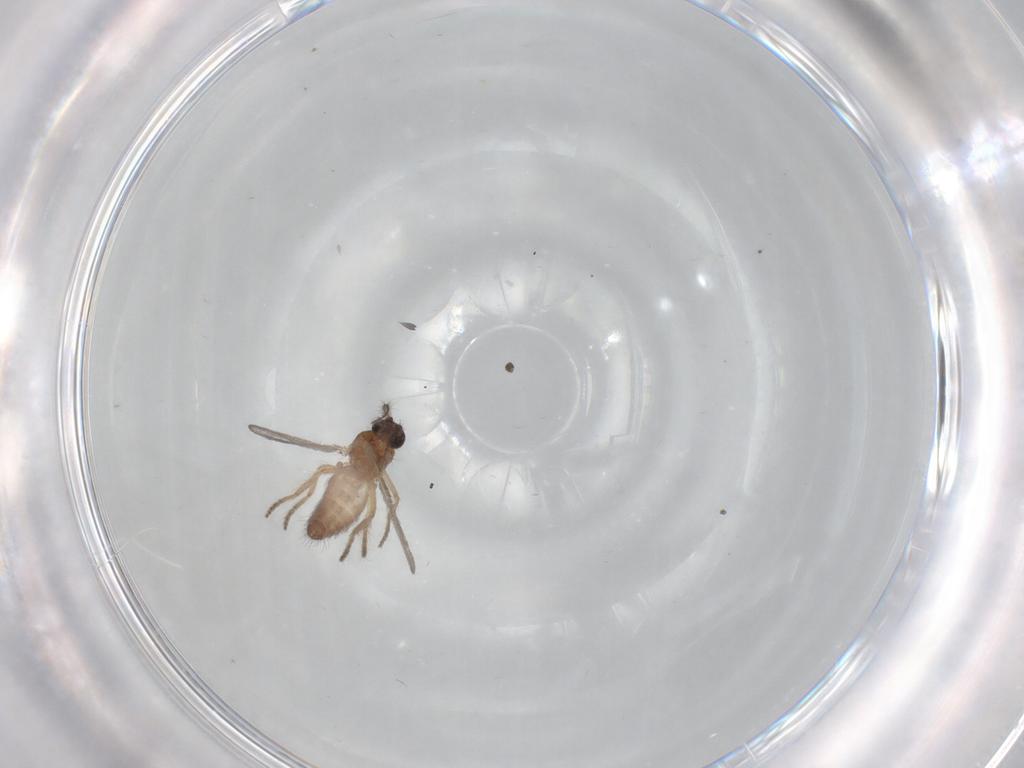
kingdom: Animalia
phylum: Arthropoda
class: Insecta
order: Diptera
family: Ceratopogonidae
